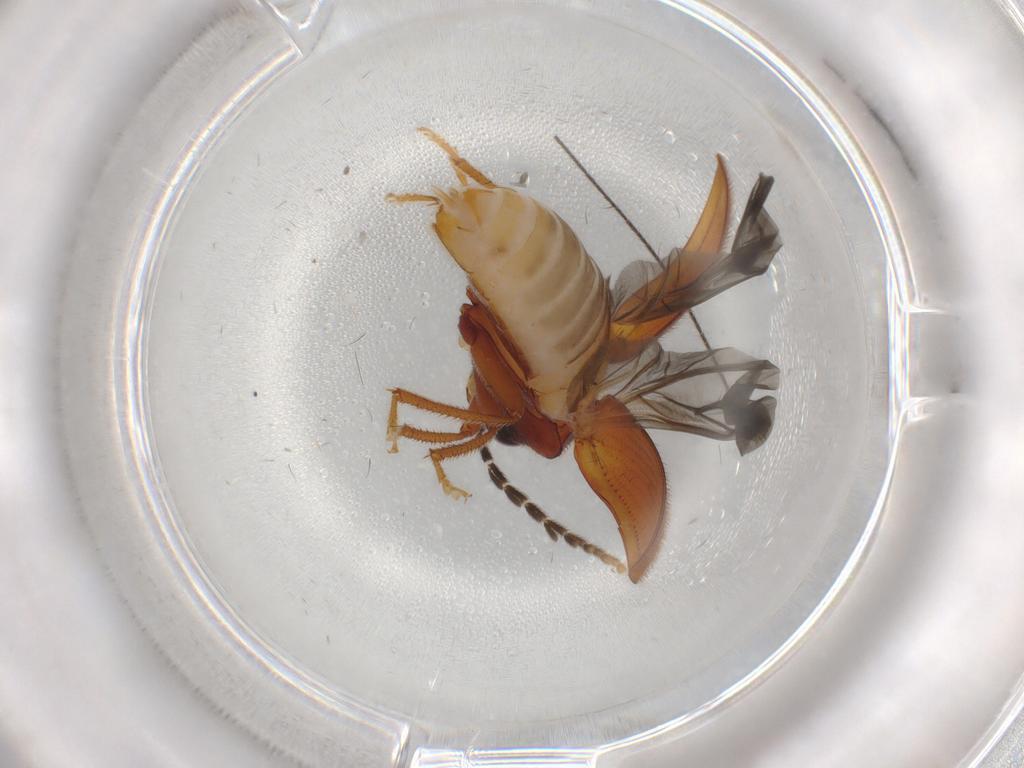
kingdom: Animalia
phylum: Arthropoda
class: Insecta
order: Coleoptera
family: Ptilodactylidae
